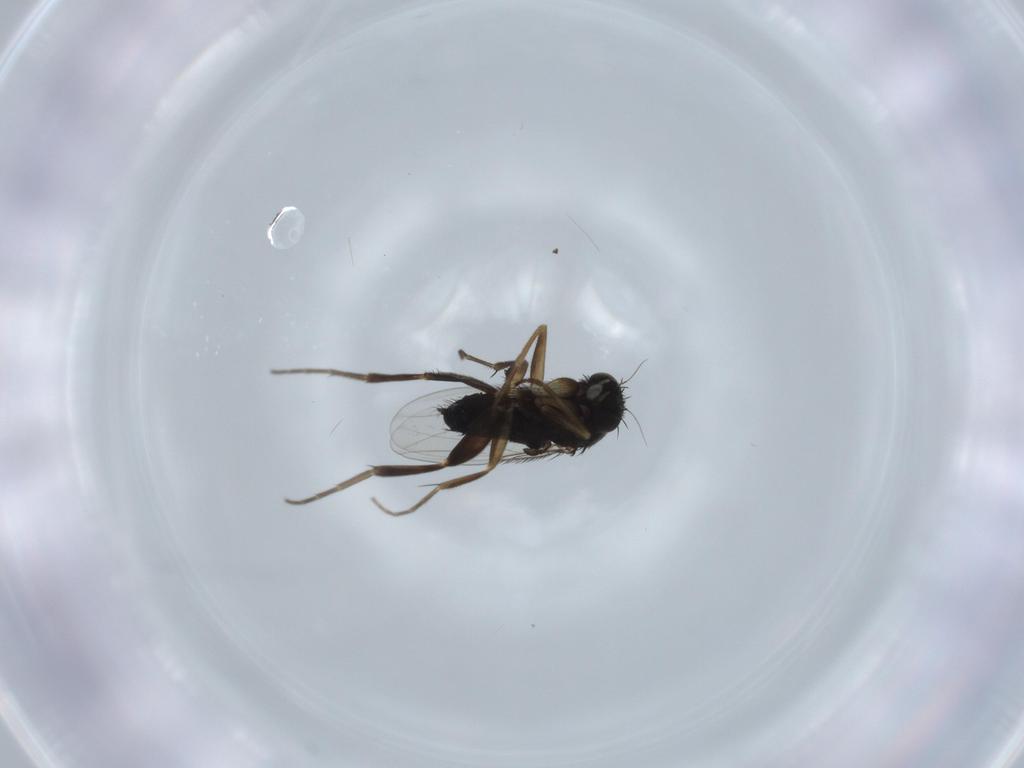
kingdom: Animalia
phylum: Arthropoda
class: Insecta
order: Diptera
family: Phoridae
